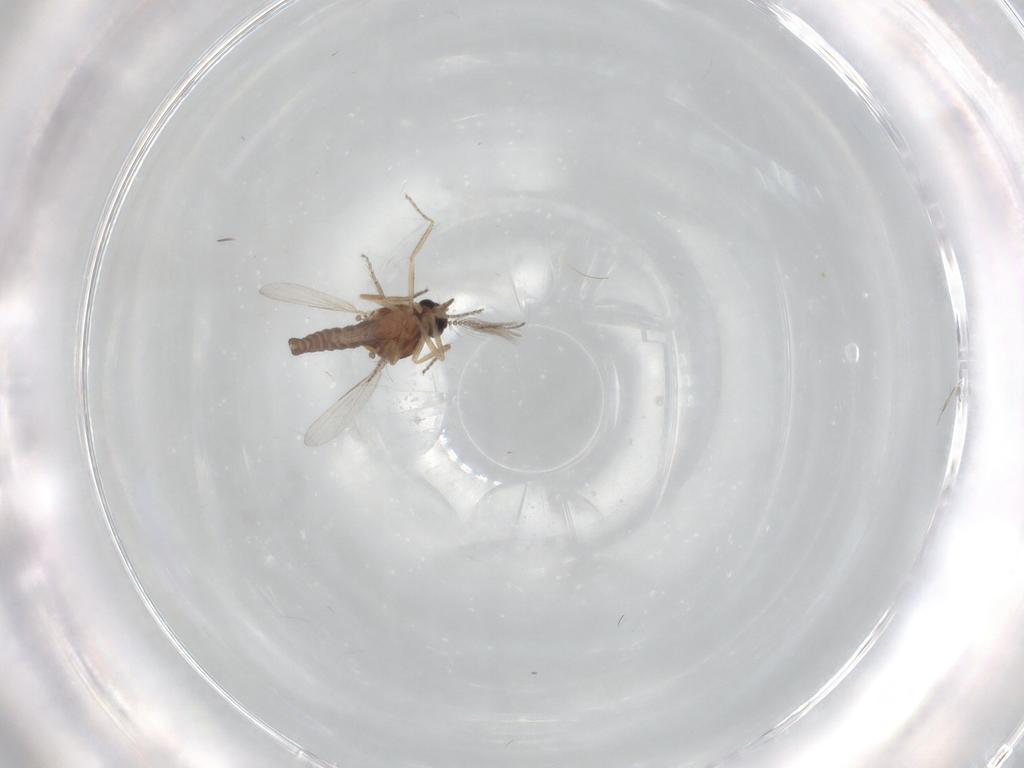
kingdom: Animalia
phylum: Arthropoda
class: Insecta
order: Diptera
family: Ceratopogonidae
